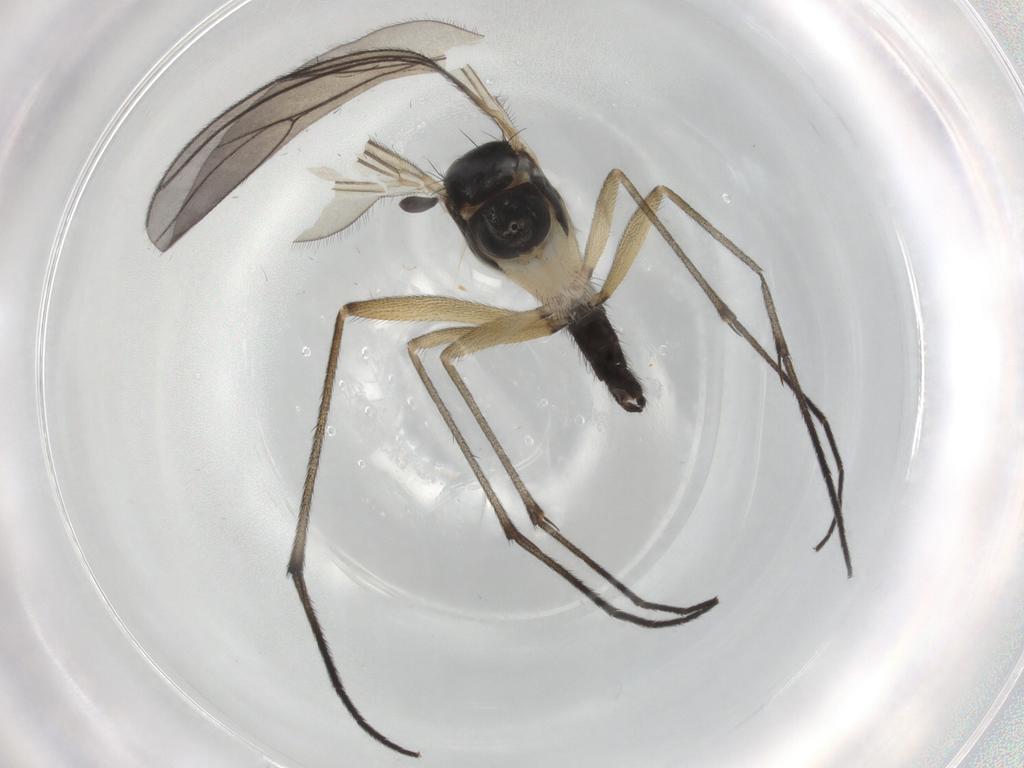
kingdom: Animalia
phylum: Arthropoda
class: Insecta
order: Diptera
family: Sciaridae
